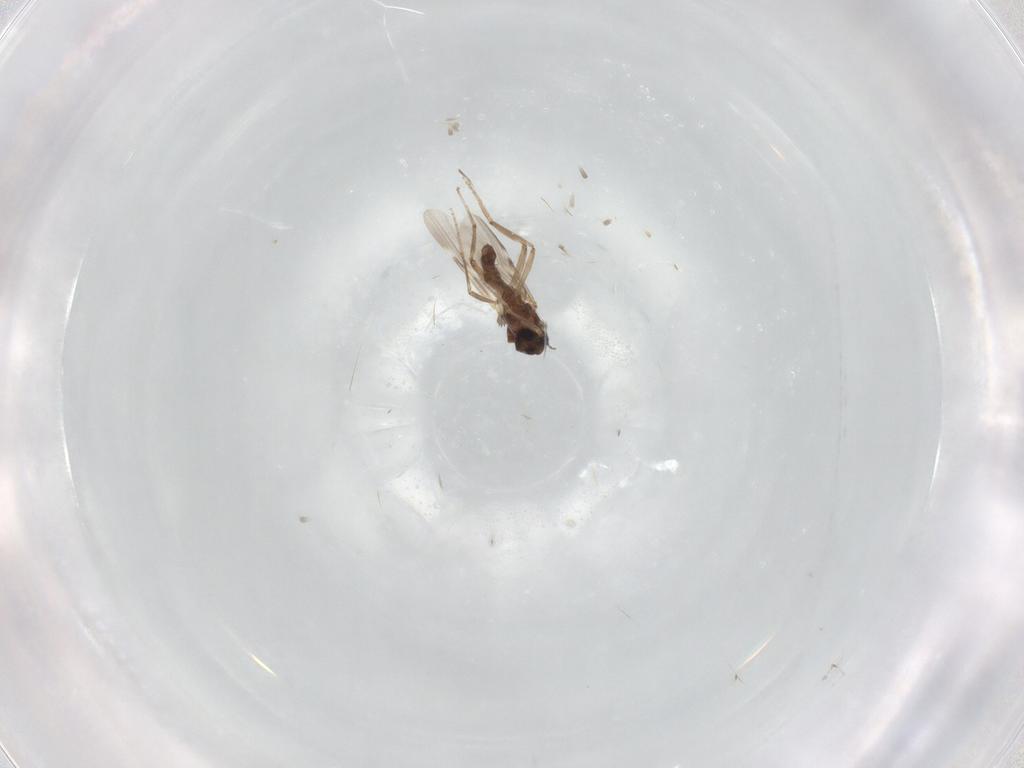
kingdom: Animalia
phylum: Arthropoda
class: Insecta
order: Diptera
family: Ceratopogonidae
